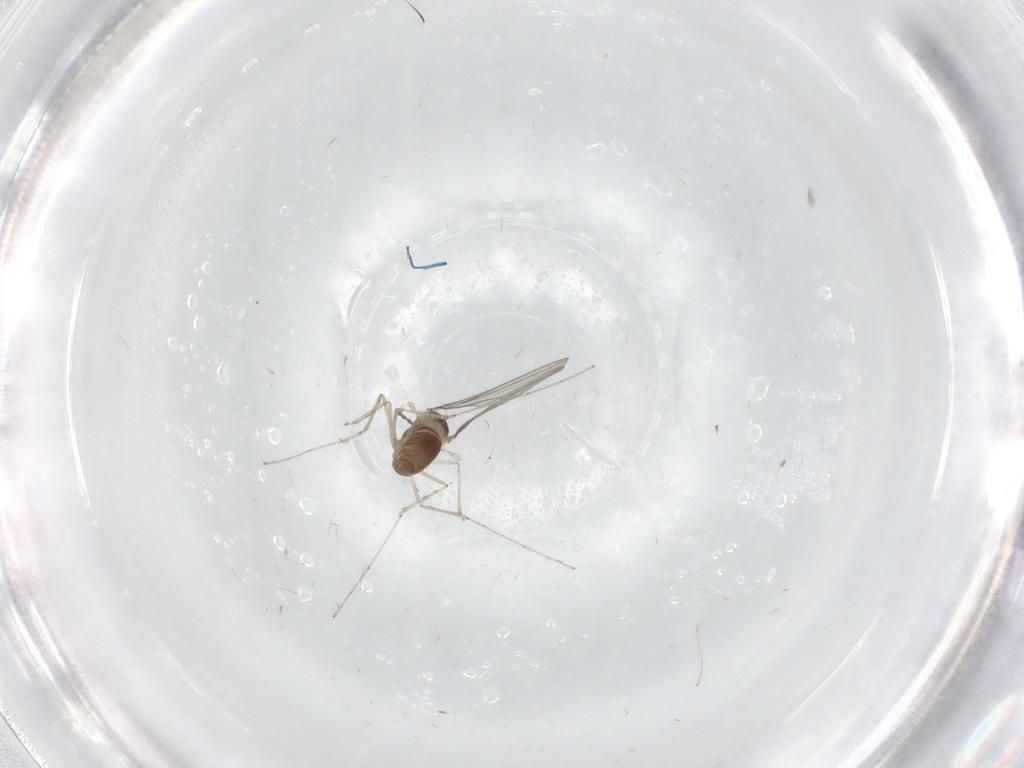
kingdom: Animalia
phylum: Arthropoda
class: Insecta
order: Diptera
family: Cecidomyiidae
